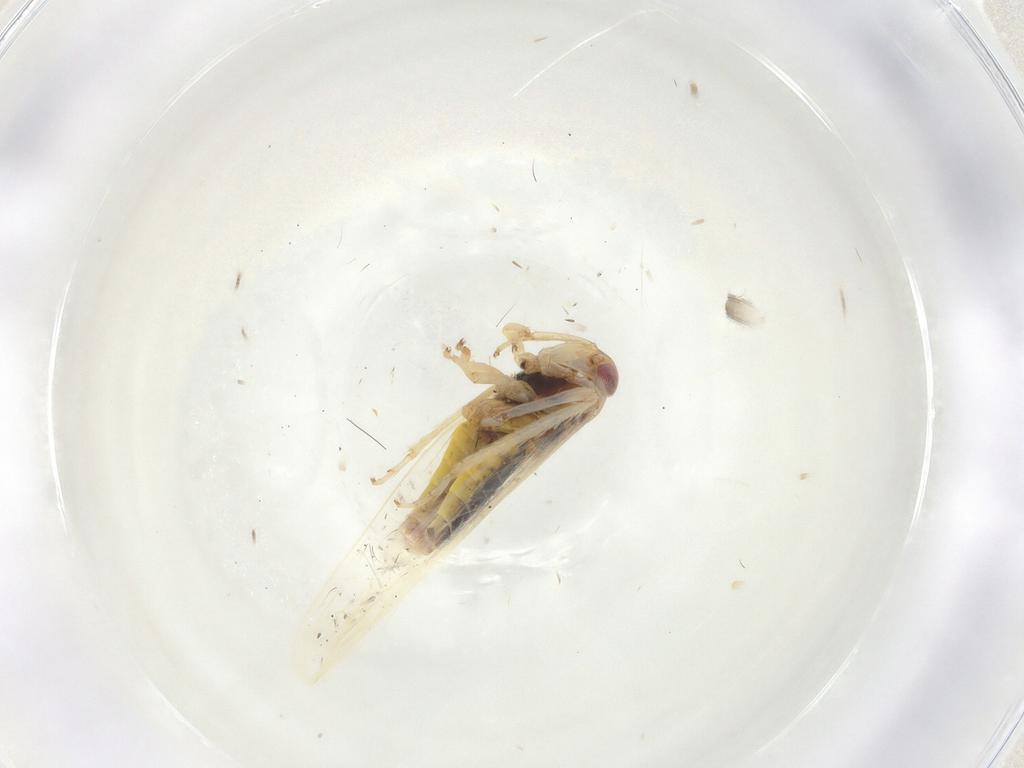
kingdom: Animalia
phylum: Arthropoda
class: Insecta
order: Hemiptera
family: Cicadellidae
